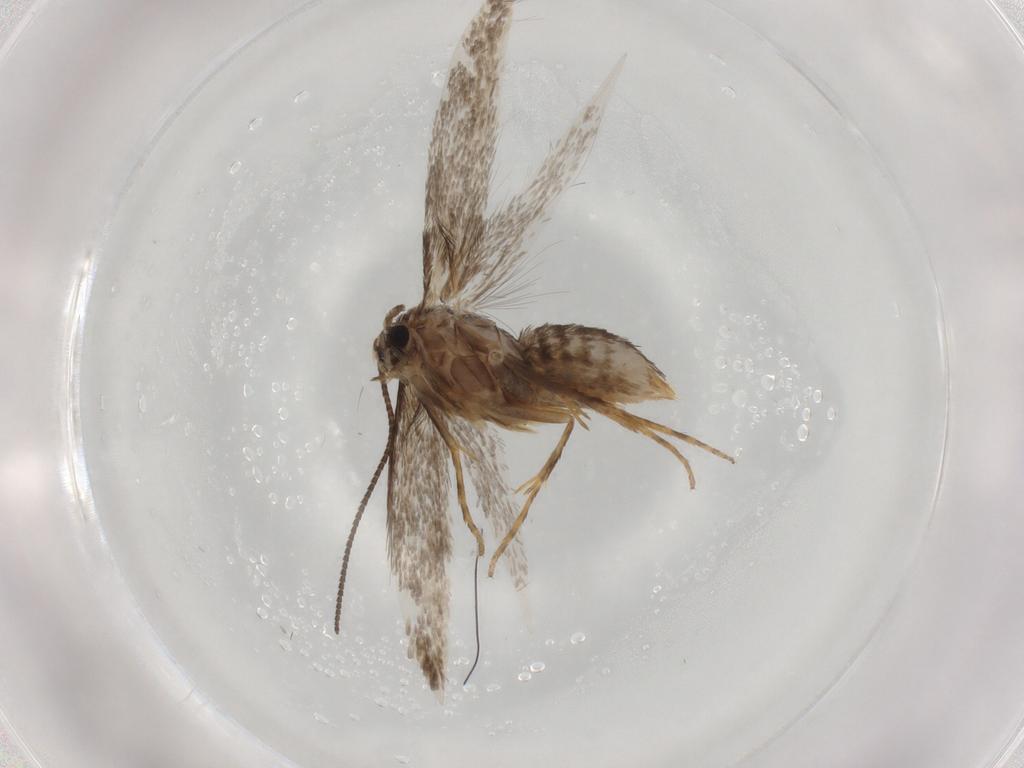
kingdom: Animalia
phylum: Arthropoda
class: Insecta
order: Lepidoptera
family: Nepticulidae
